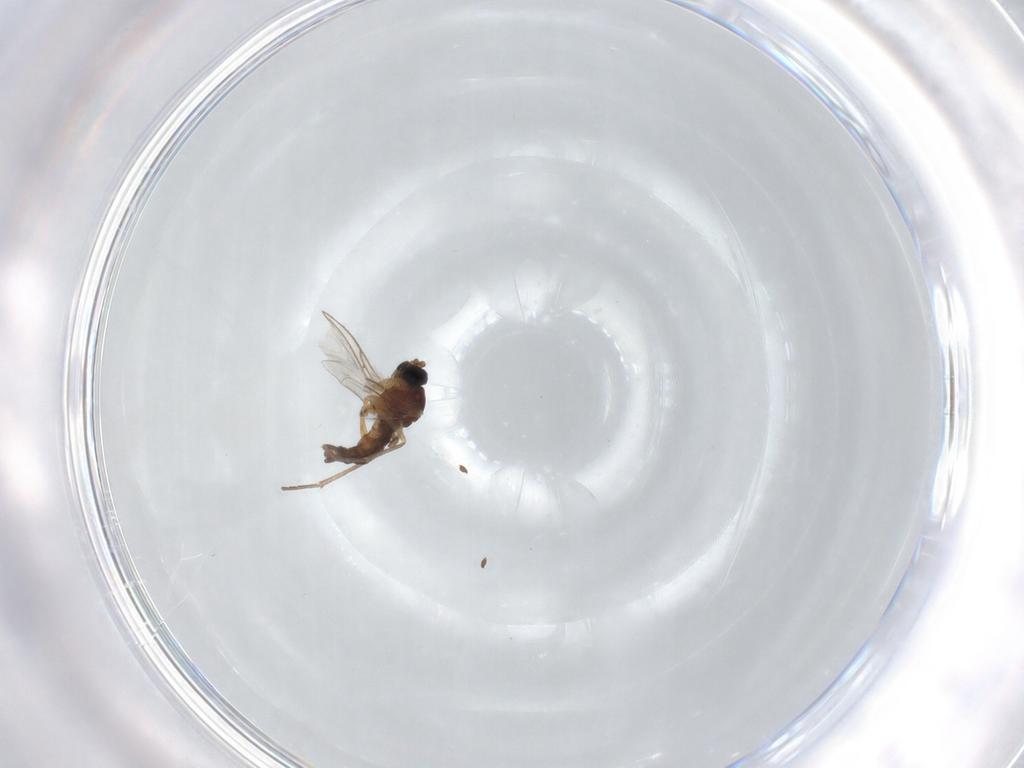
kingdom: Animalia
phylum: Arthropoda
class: Insecta
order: Diptera
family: Sciaridae
